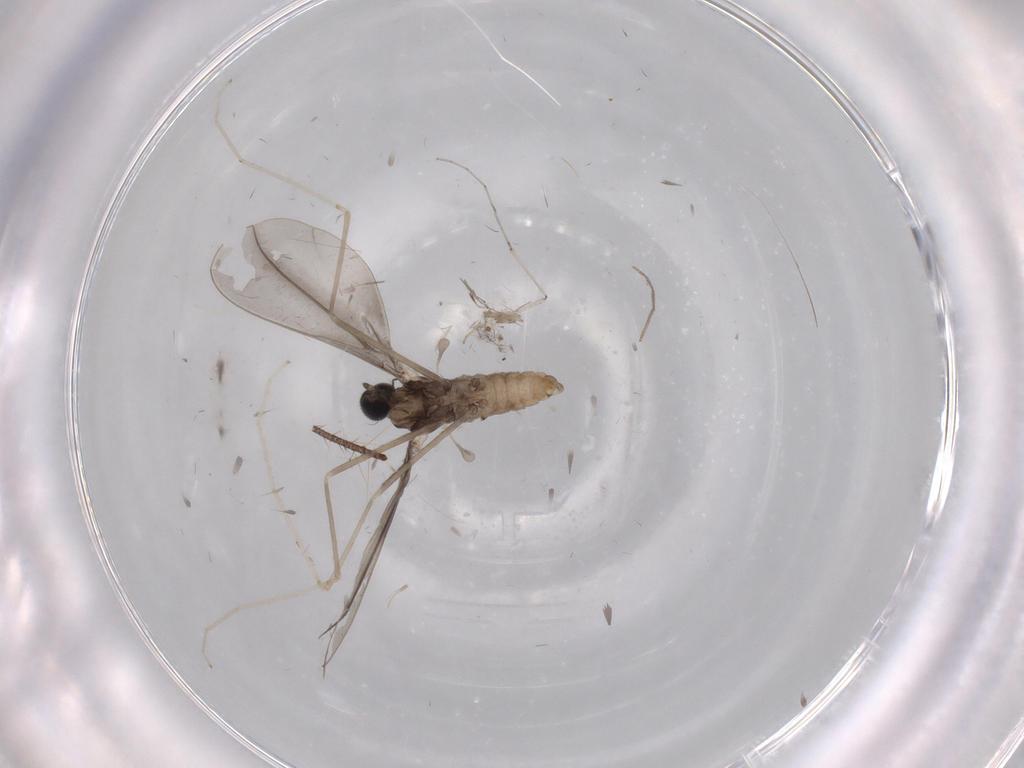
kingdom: Animalia
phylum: Arthropoda
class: Insecta
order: Diptera
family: Cecidomyiidae
